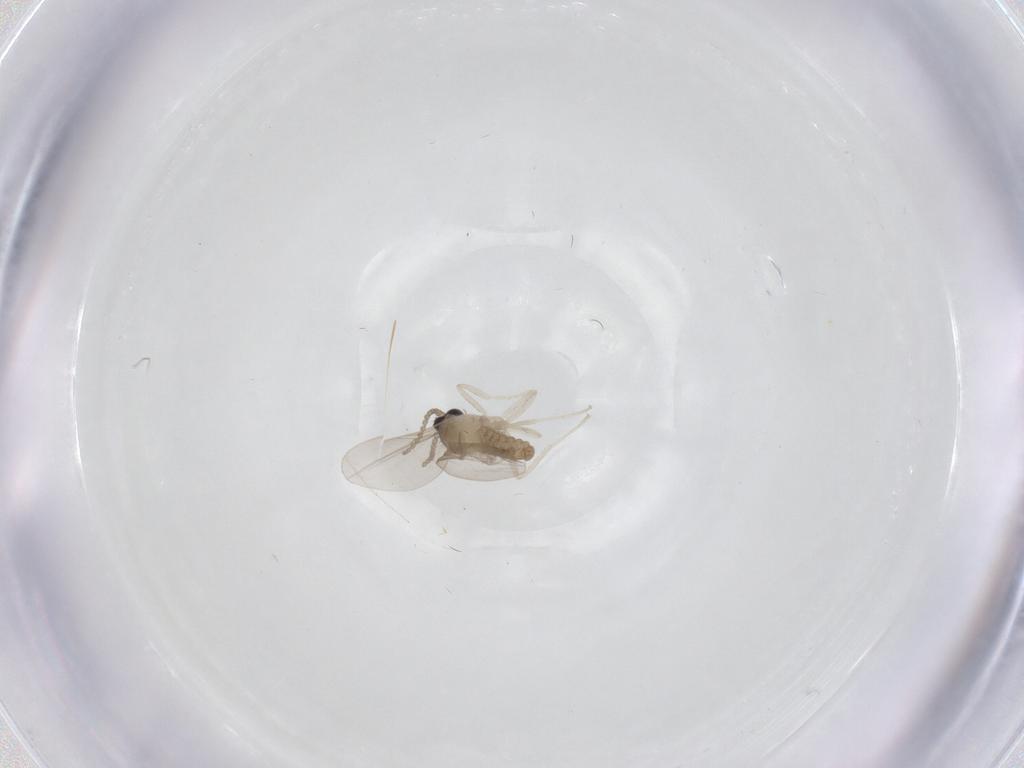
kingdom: Animalia
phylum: Arthropoda
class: Insecta
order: Diptera
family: Cecidomyiidae
